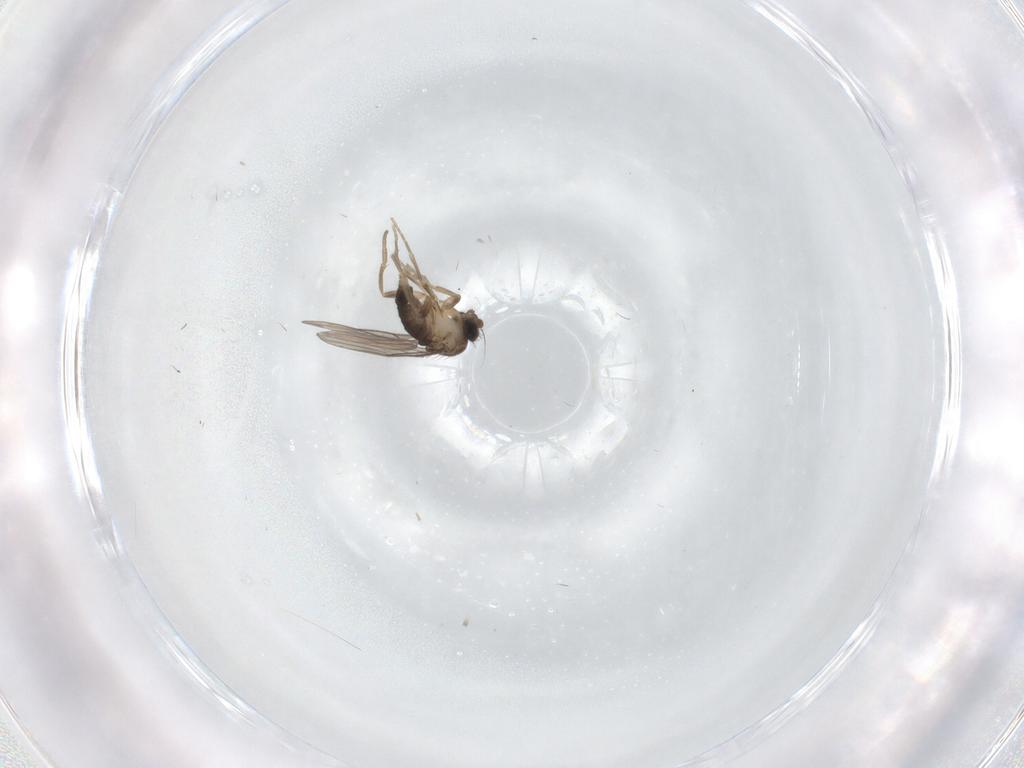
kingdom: Animalia
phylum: Arthropoda
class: Insecta
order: Diptera
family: Phoridae
